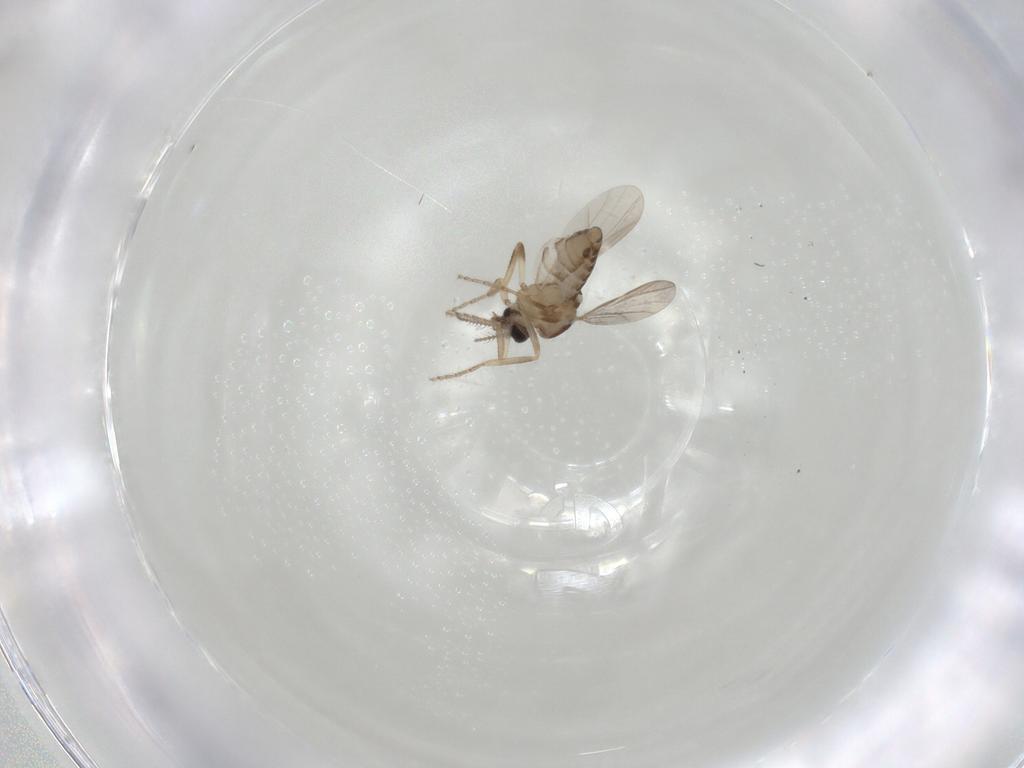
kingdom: Animalia
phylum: Arthropoda
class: Insecta
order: Diptera
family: Ceratopogonidae
